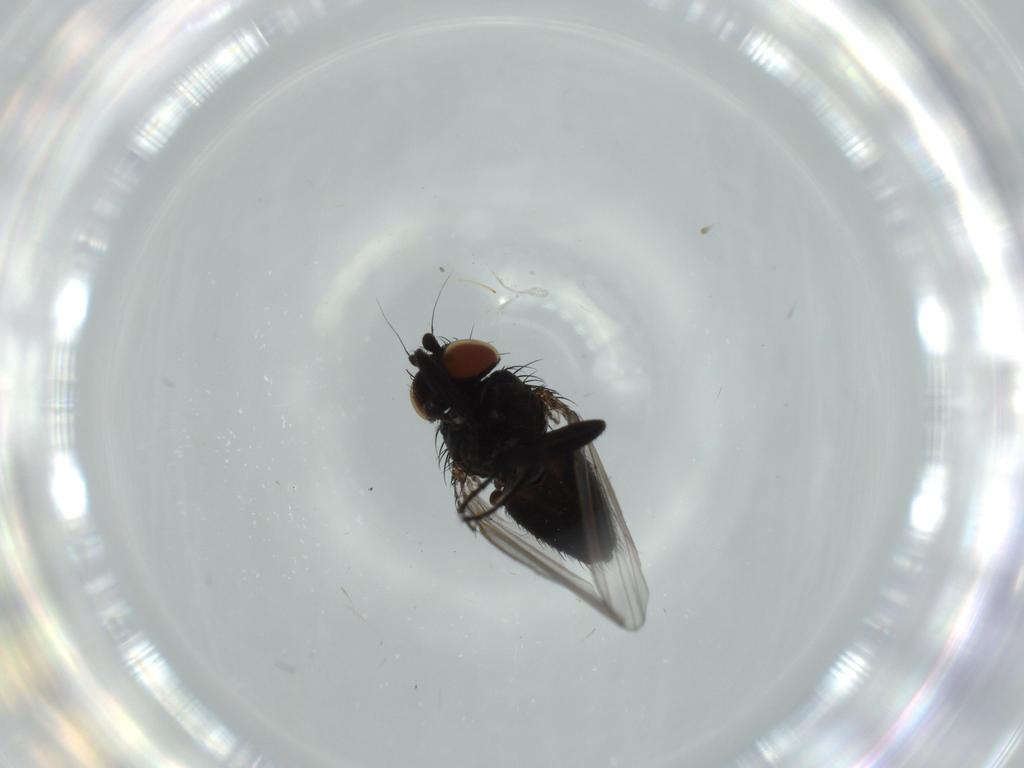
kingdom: Animalia
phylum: Arthropoda
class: Insecta
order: Diptera
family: Milichiidae
